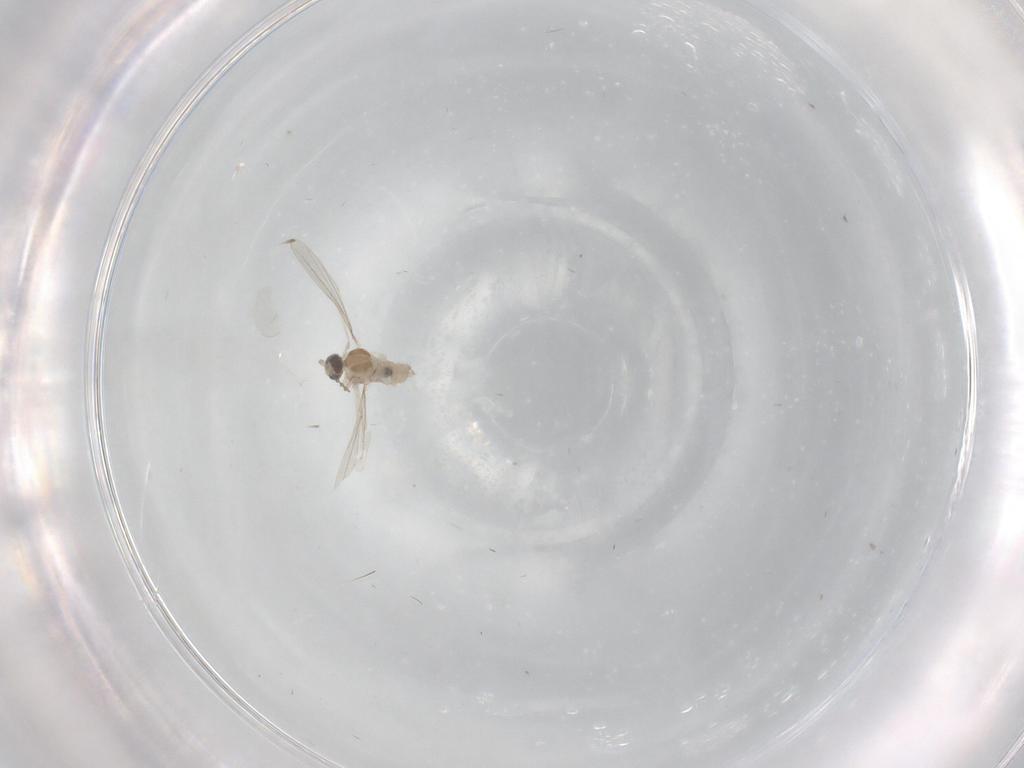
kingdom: Animalia
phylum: Arthropoda
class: Insecta
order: Diptera
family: Cecidomyiidae
